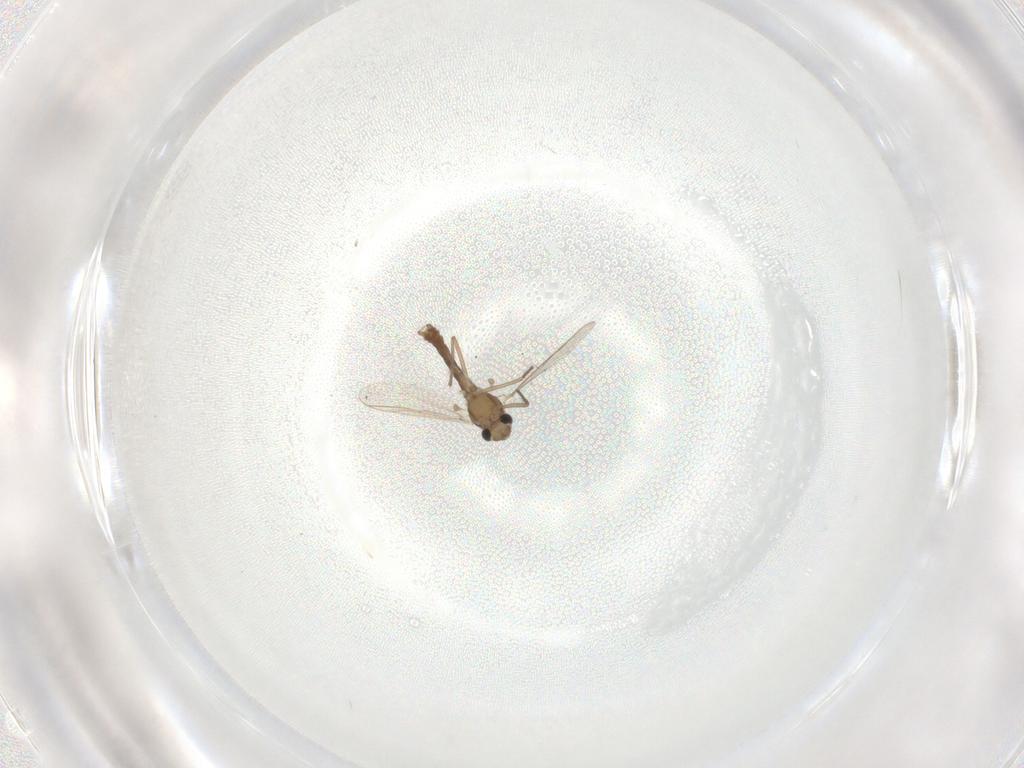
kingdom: Animalia
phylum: Arthropoda
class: Insecta
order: Diptera
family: Chironomidae
